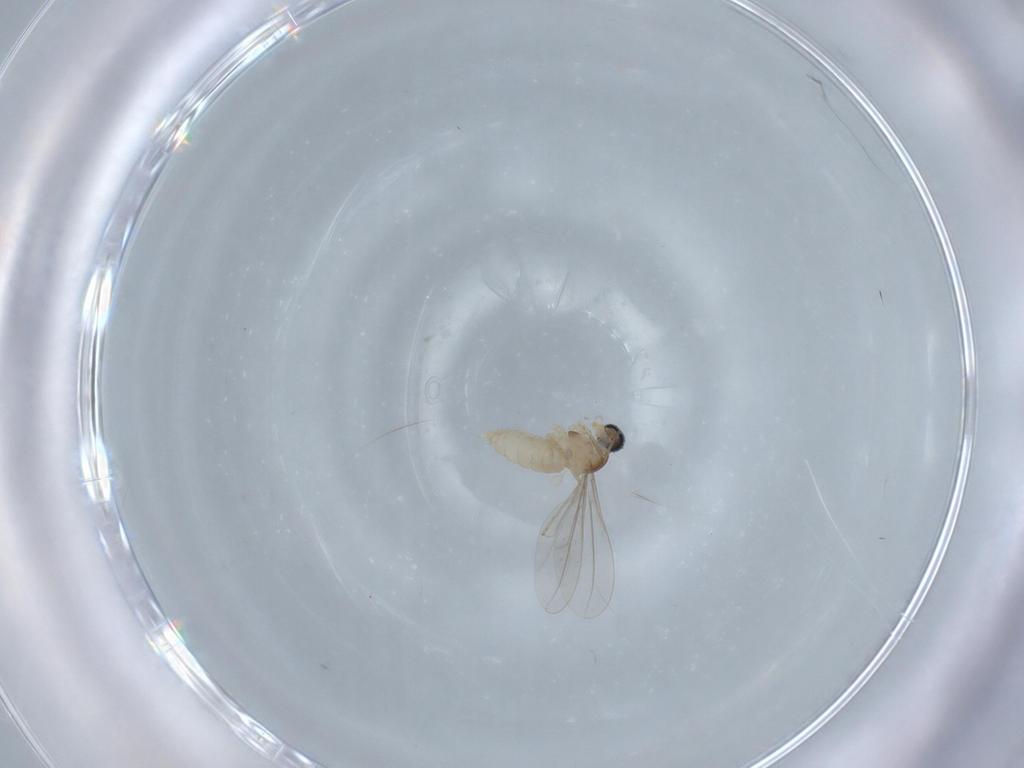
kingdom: Animalia
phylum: Arthropoda
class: Insecta
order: Diptera
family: Cecidomyiidae
